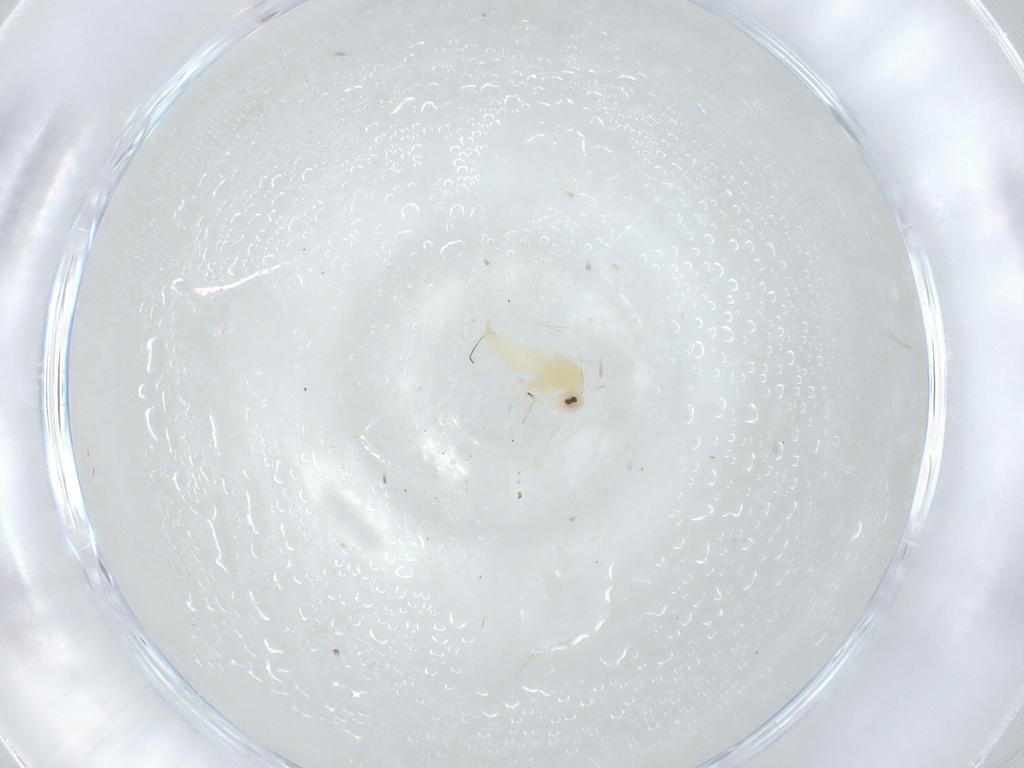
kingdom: Animalia
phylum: Arthropoda
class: Insecta
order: Hemiptera
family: Aleyrodidae
